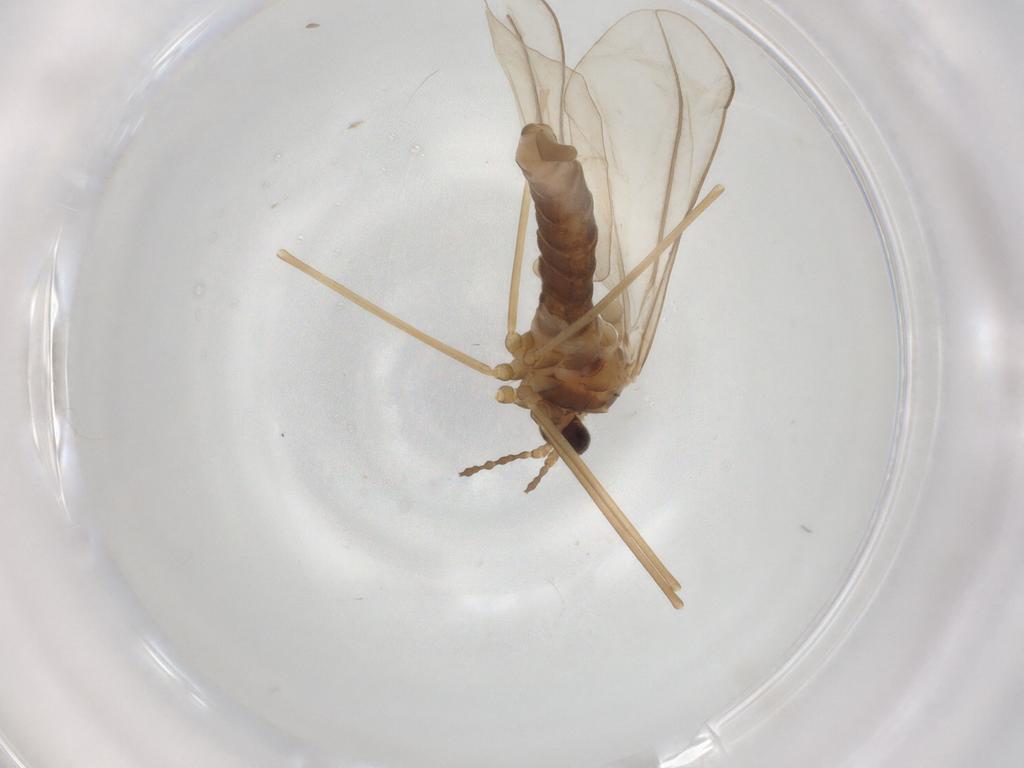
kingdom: Animalia
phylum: Arthropoda
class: Insecta
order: Diptera
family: Cecidomyiidae
